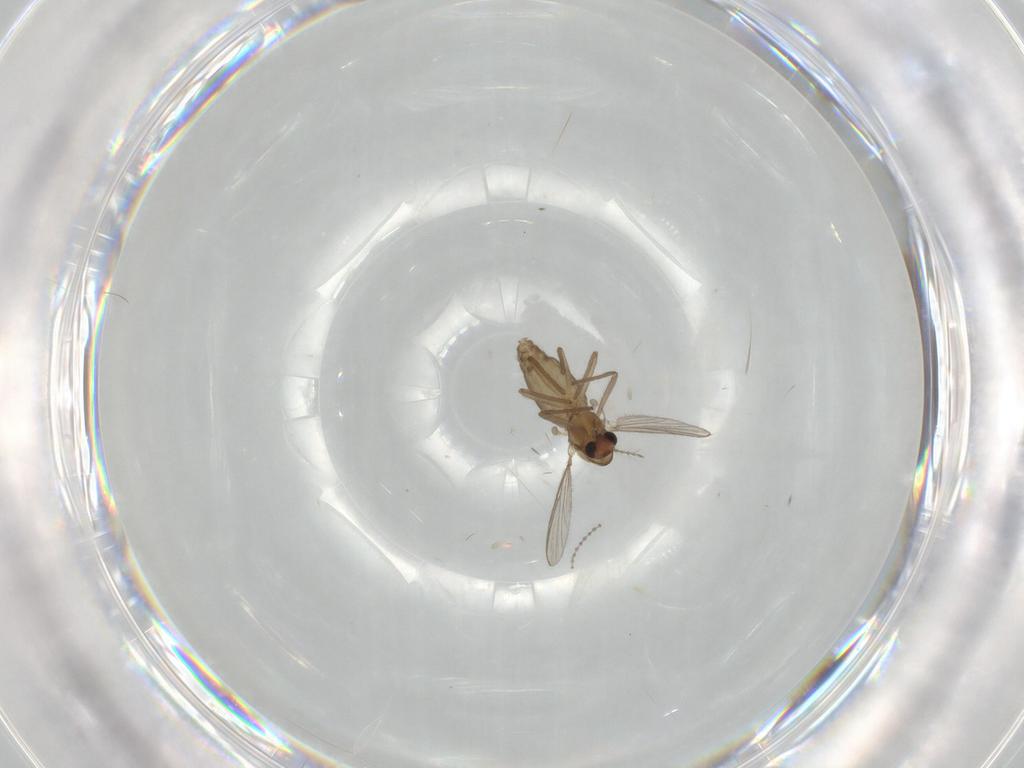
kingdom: Animalia
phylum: Arthropoda
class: Insecta
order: Diptera
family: Chironomidae
